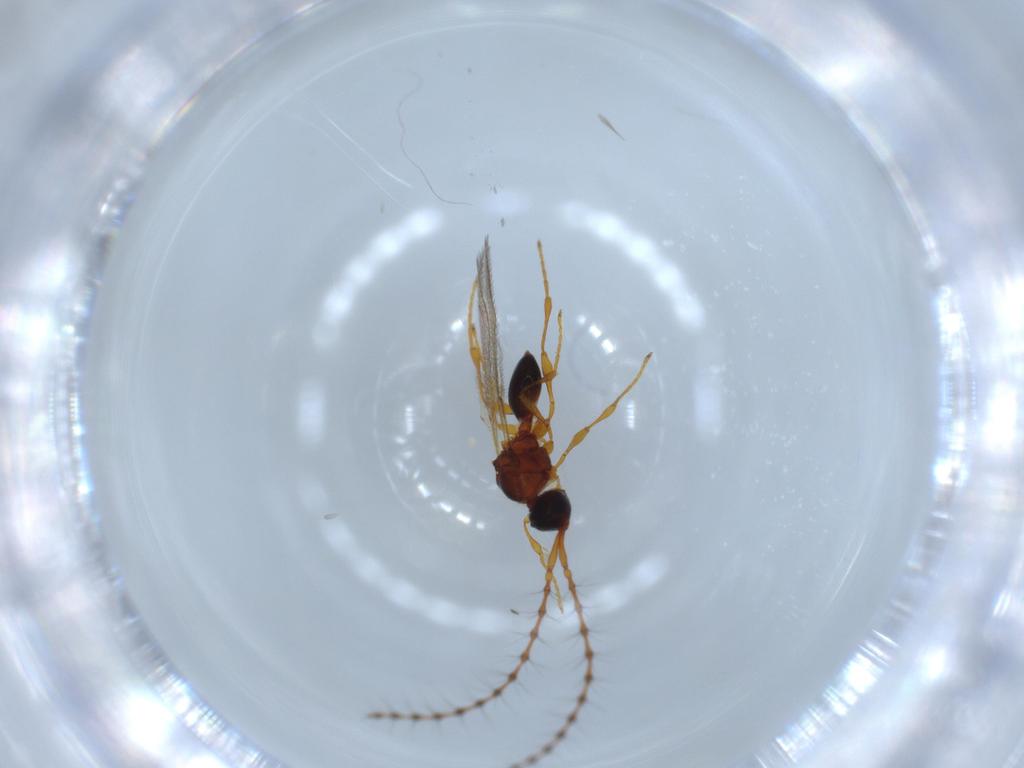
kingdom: Animalia
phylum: Arthropoda
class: Insecta
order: Hymenoptera
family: Diapriidae
